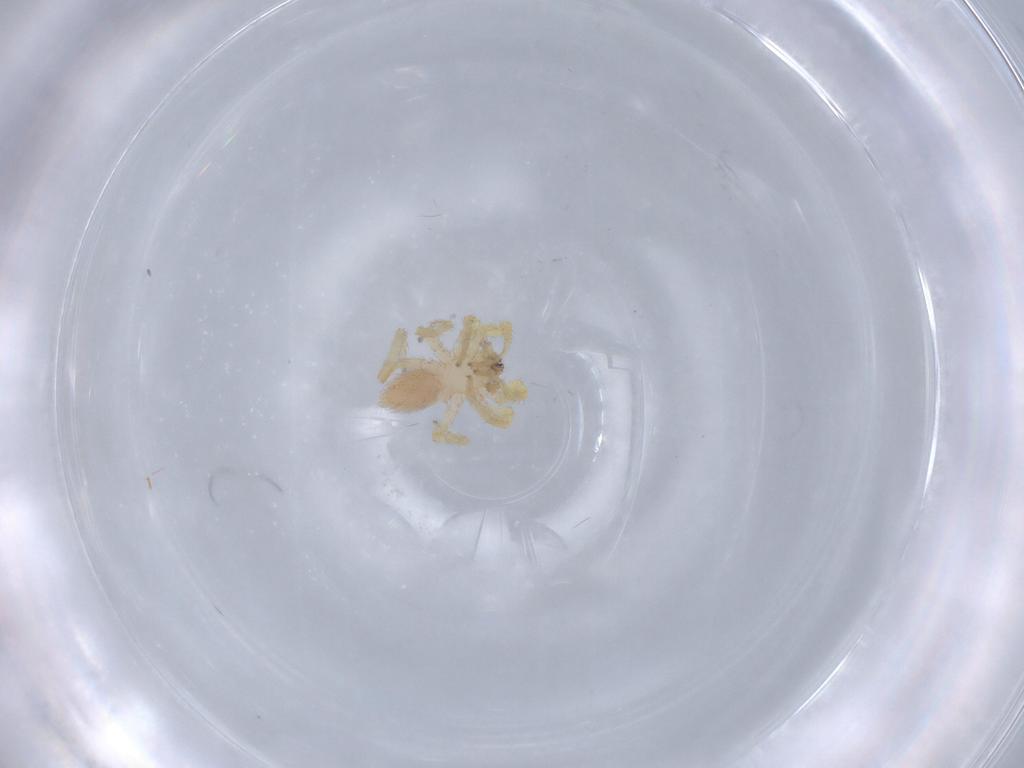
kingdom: Animalia
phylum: Arthropoda
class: Arachnida
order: Araneae
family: Oonopidae
